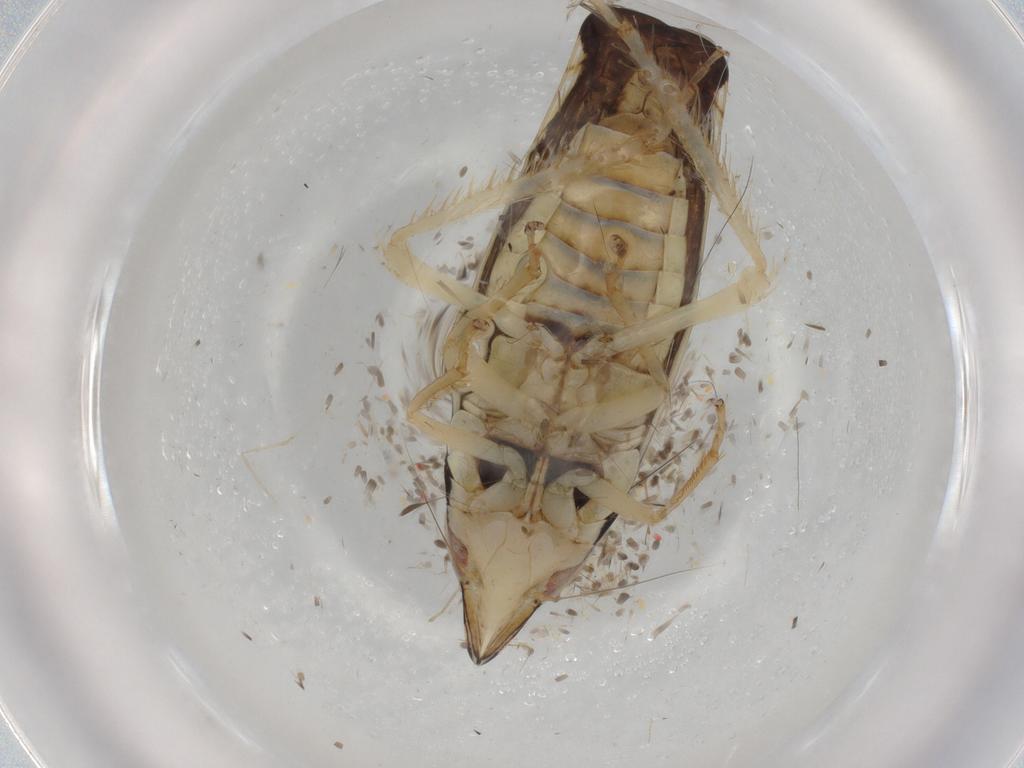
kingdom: Animalia
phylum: Arthropoda
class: Insecta
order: Hemiptera
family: Cicadellidae
